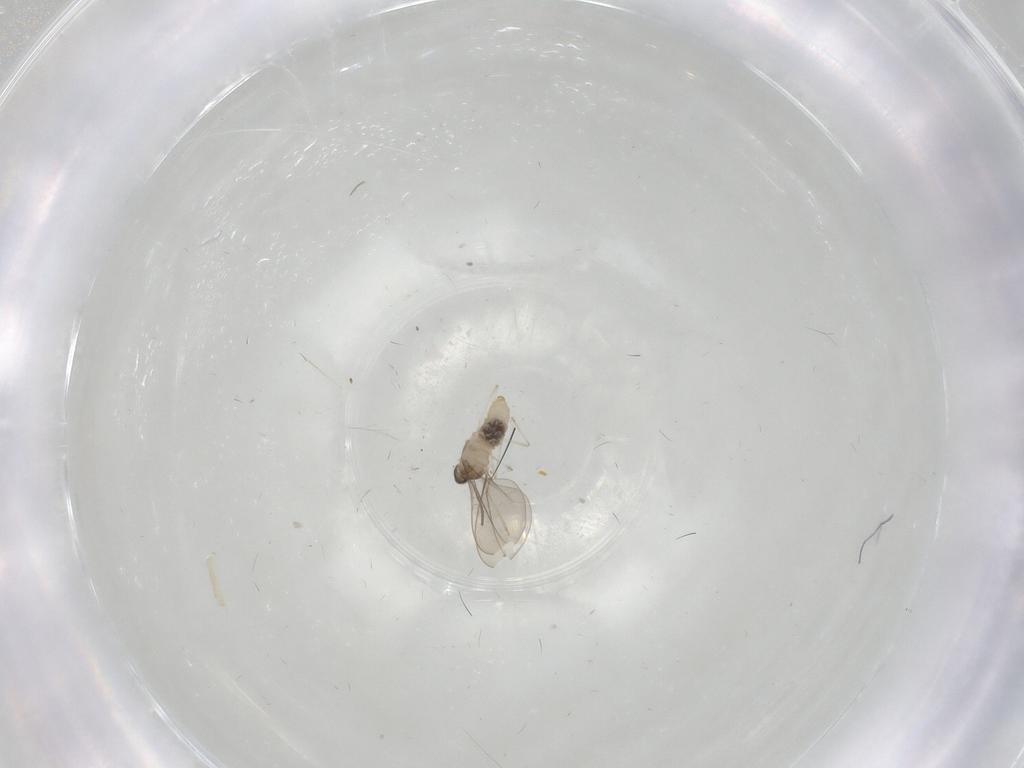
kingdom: Animalia
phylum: Arthropoda
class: Insecta
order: Diptera
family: Cecidomyiidae
